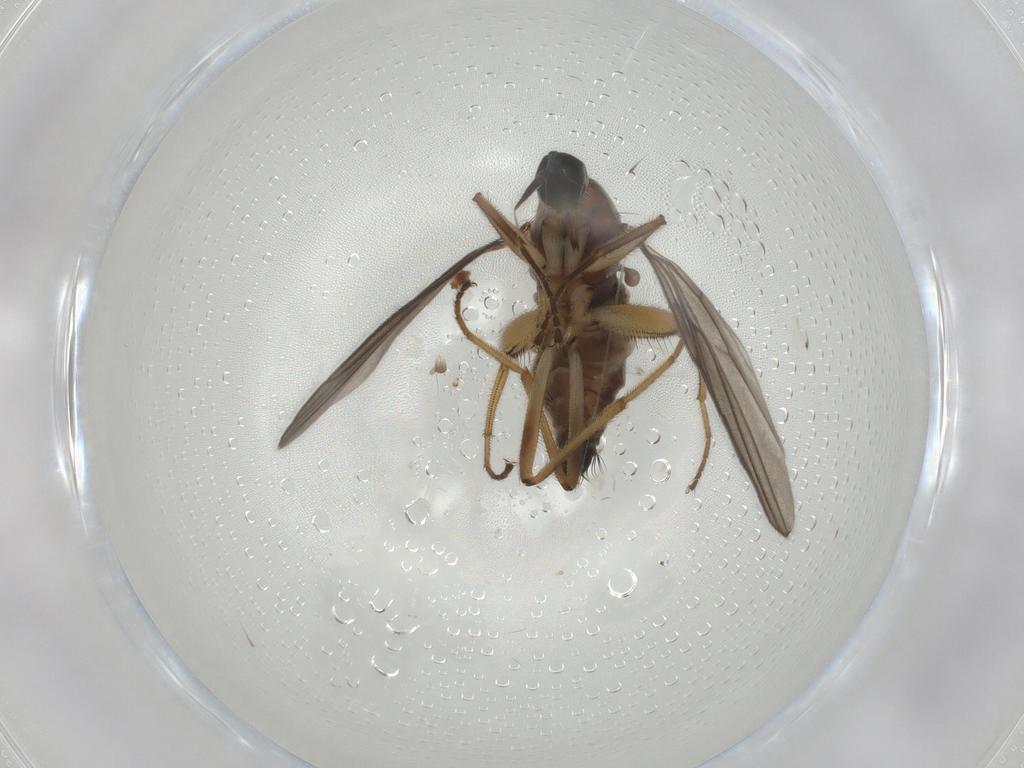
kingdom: Animalia
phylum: Arthropoda
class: Insecta
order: Diptera
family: Hybotidae
